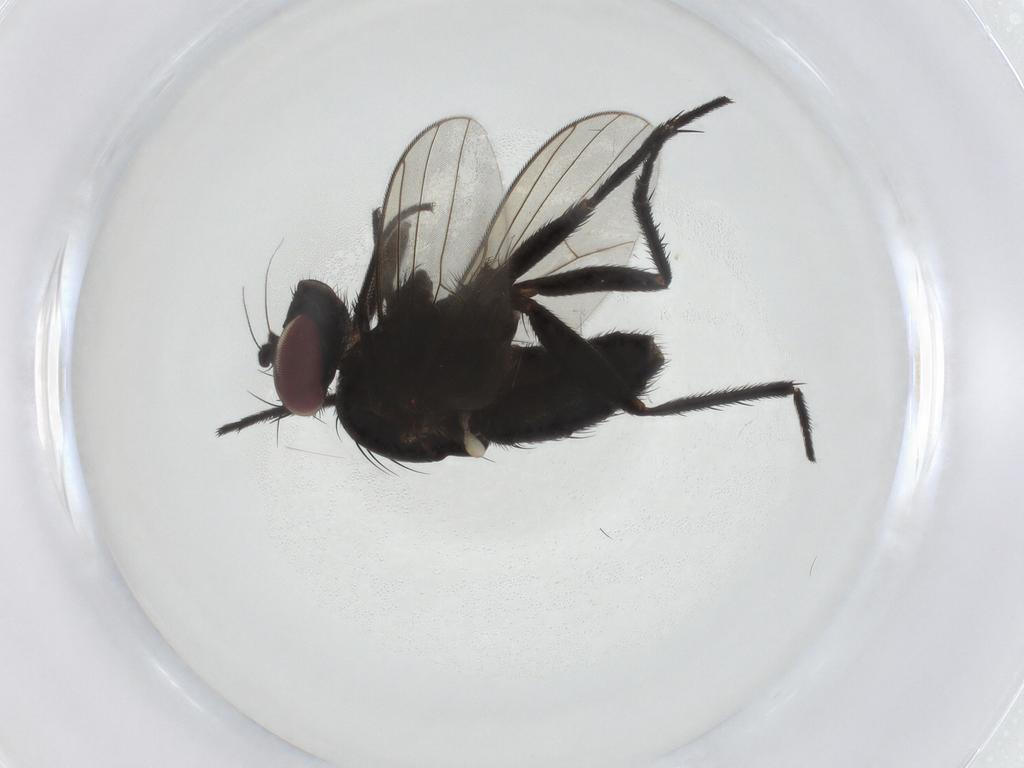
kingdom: Animalia
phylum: Arthropoda
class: Insecta
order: Diptera
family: Dolichopodidae
